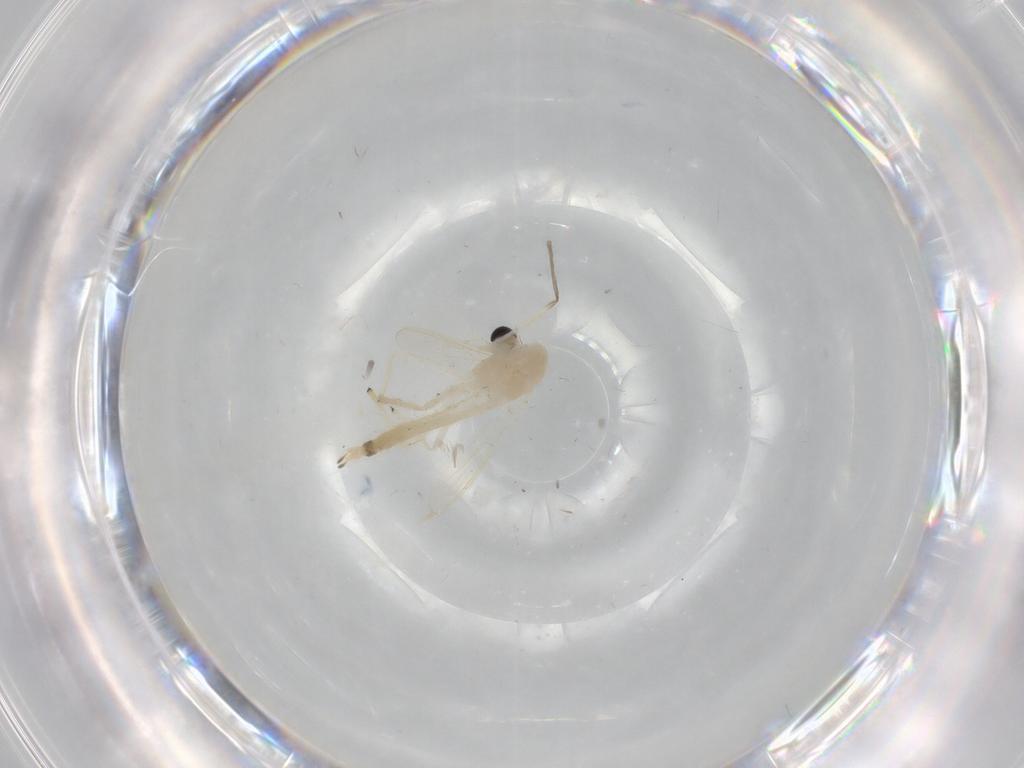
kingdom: Animalia
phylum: Arthropoda
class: Insecta
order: Diptera
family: Chironomidae
